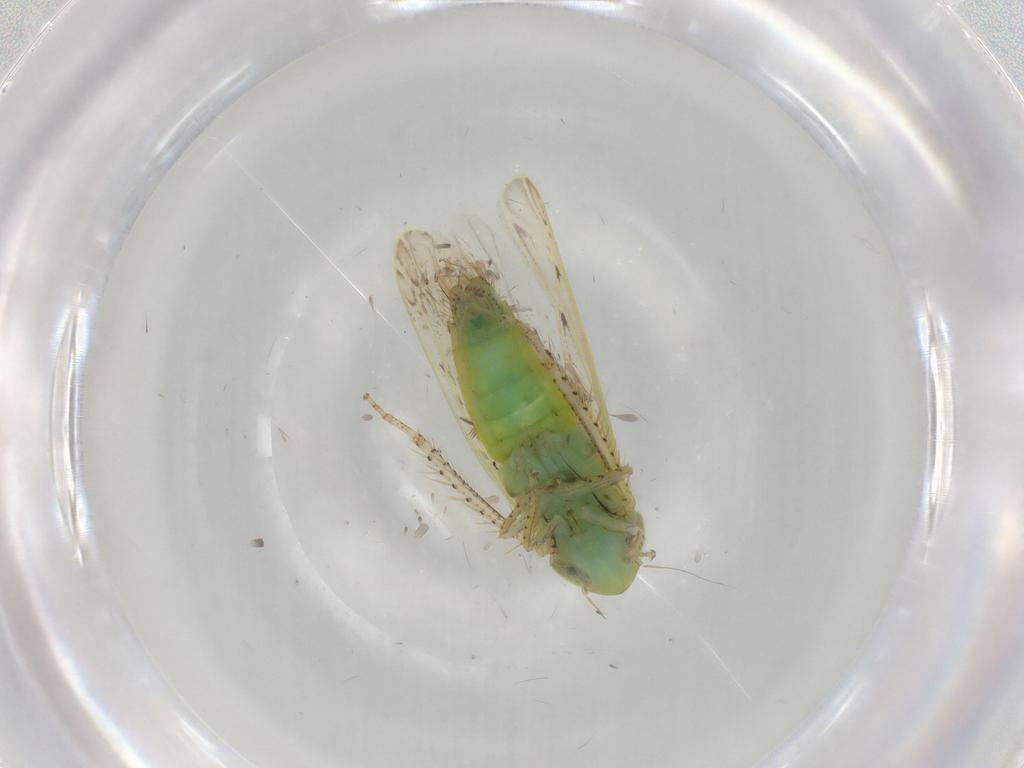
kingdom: Animalia
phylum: Arthropoda
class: Insecta
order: Hemiptera
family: Cicadellidae
